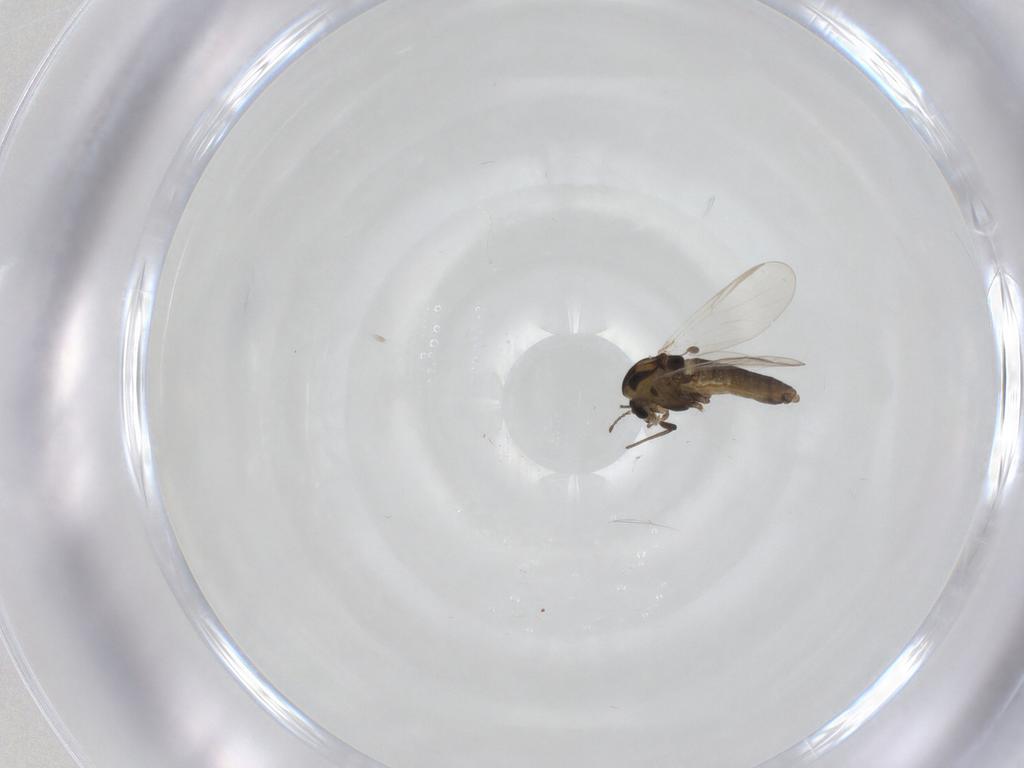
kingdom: Animalia
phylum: Arthropoda
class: Insecta
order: Diptera
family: Chironomidae
